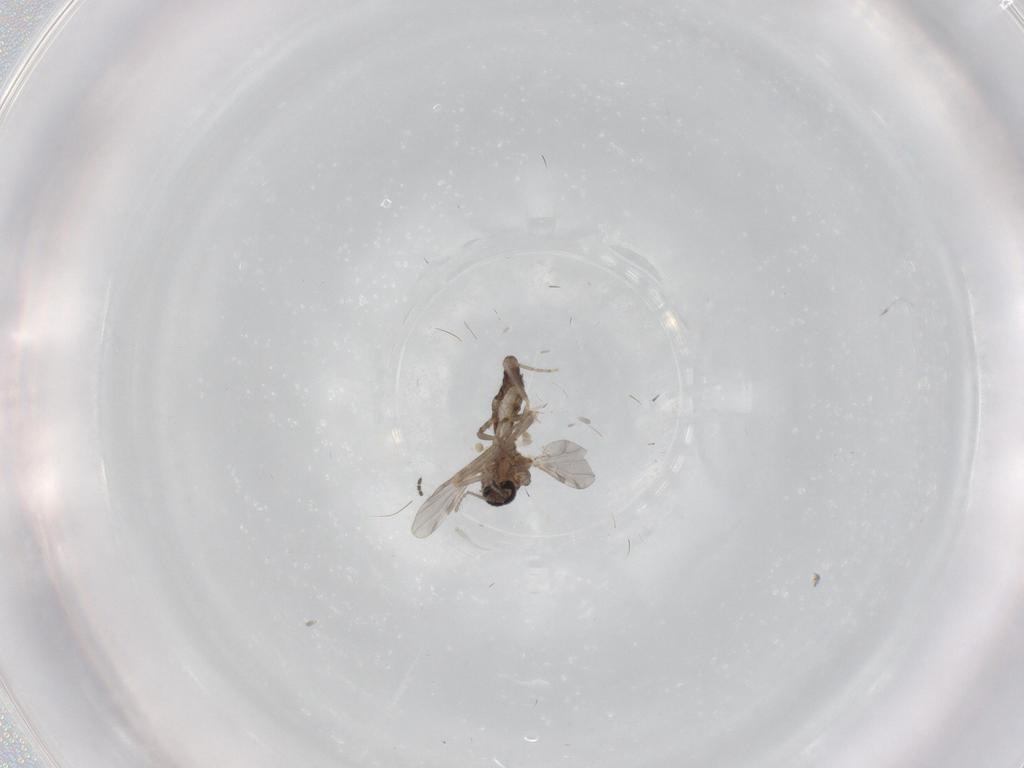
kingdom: Animalia
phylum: Arthropoda
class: Insecta
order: Diptera
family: Ceratopogonidae
